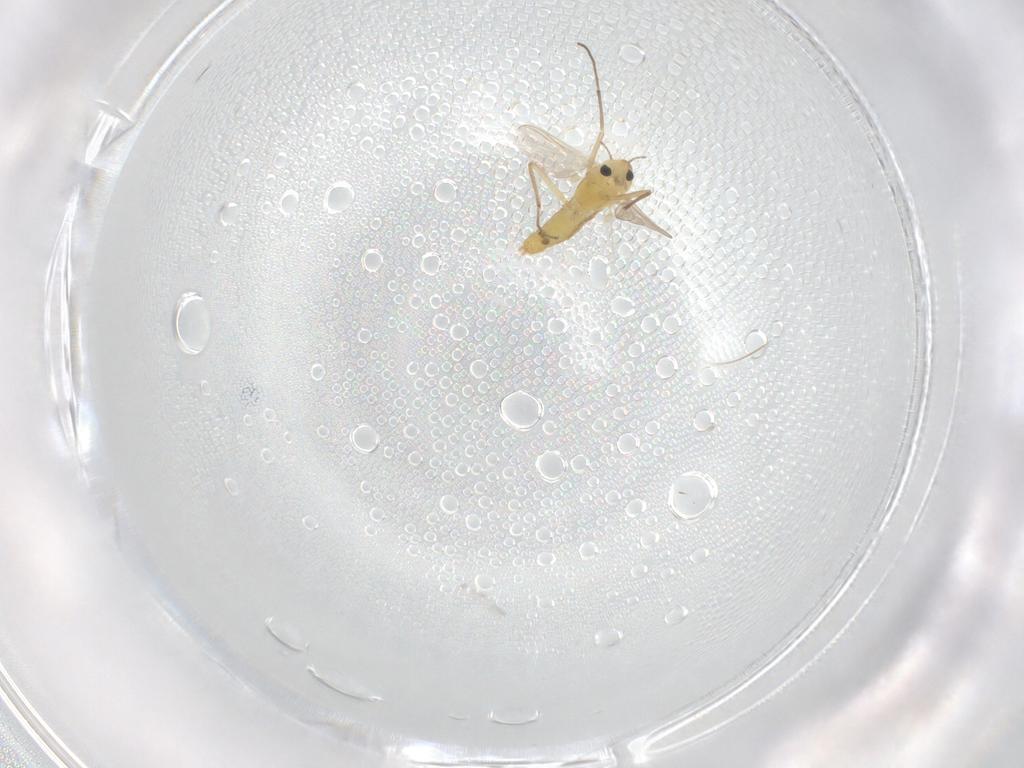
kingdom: Animalia
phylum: Arthropoda
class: Insecta
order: Diptera
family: Chironomidae
